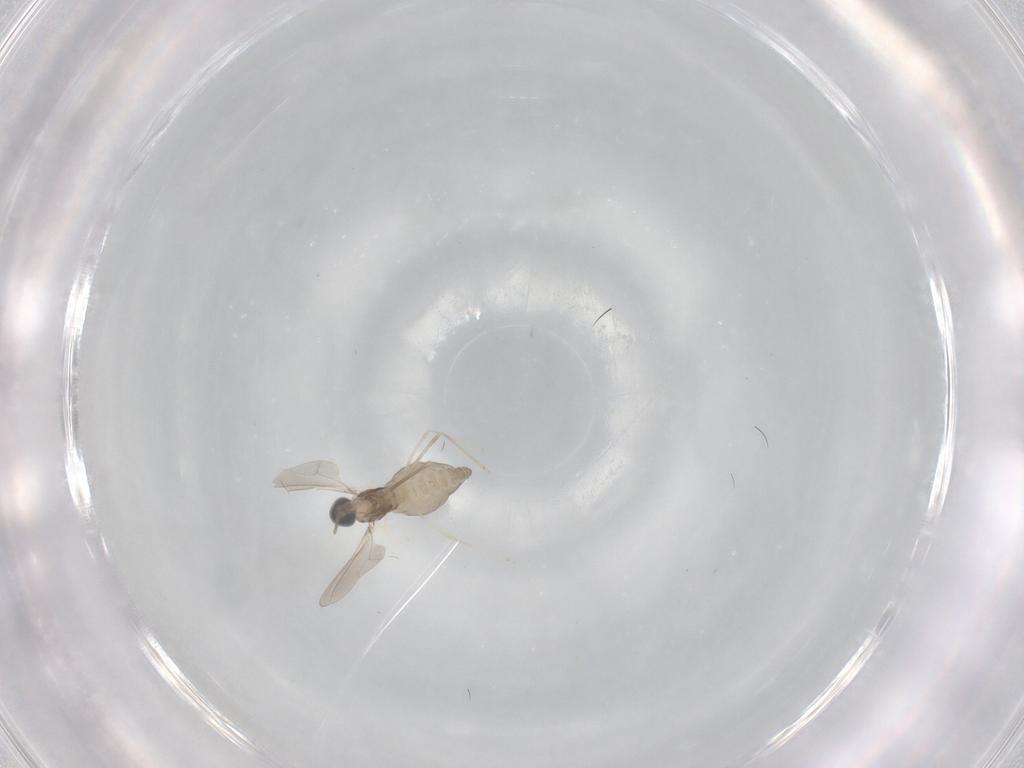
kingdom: Animalia
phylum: Arthropoda
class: Insecta
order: Diptera
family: Cecidomyiidae
